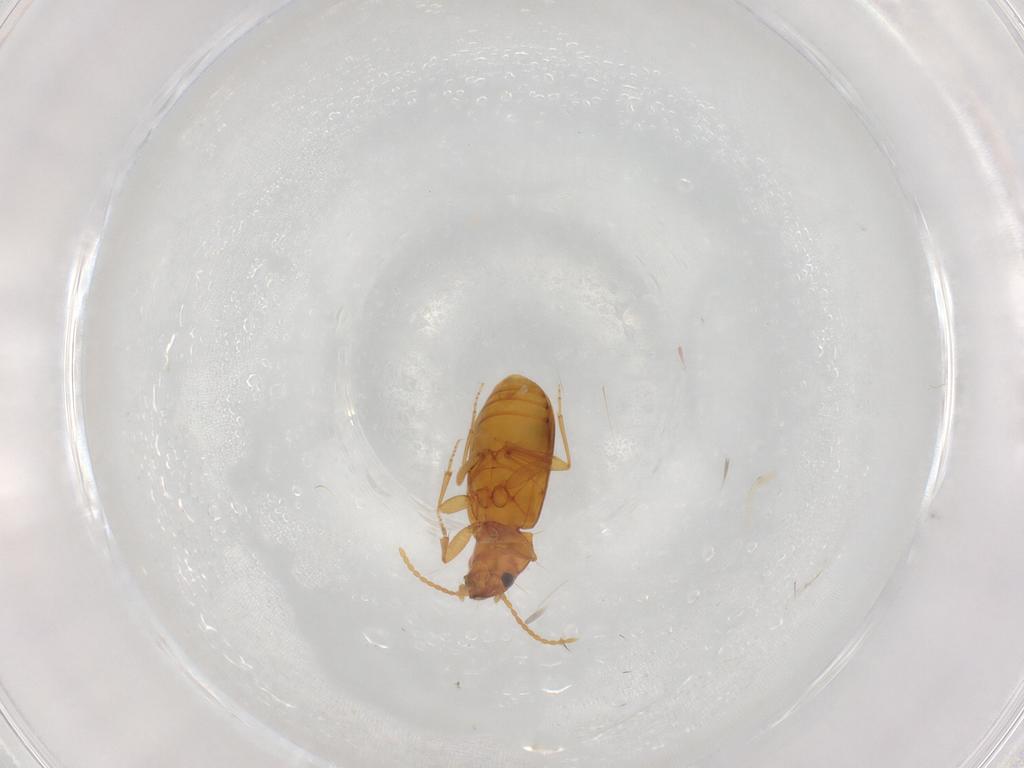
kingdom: Animalia
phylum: Arthropoda
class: Insecta
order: Coleoptera
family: Carabidae
